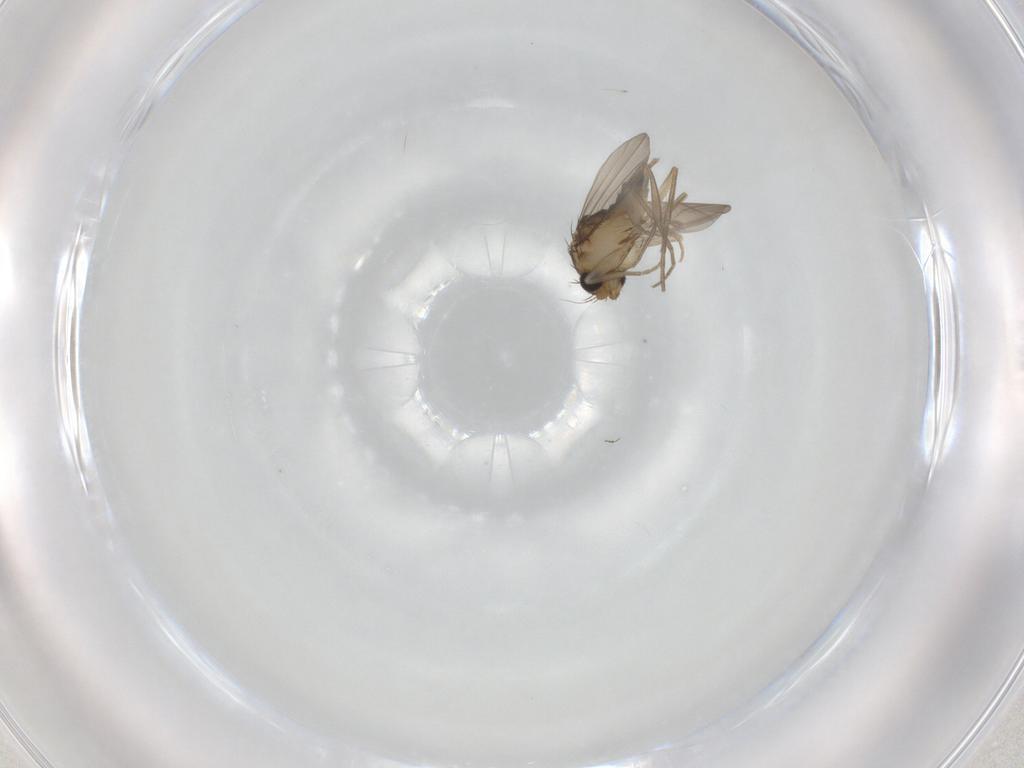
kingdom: Animalia
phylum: Arthropoda
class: Insecta
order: Diptera
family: Phoridae
